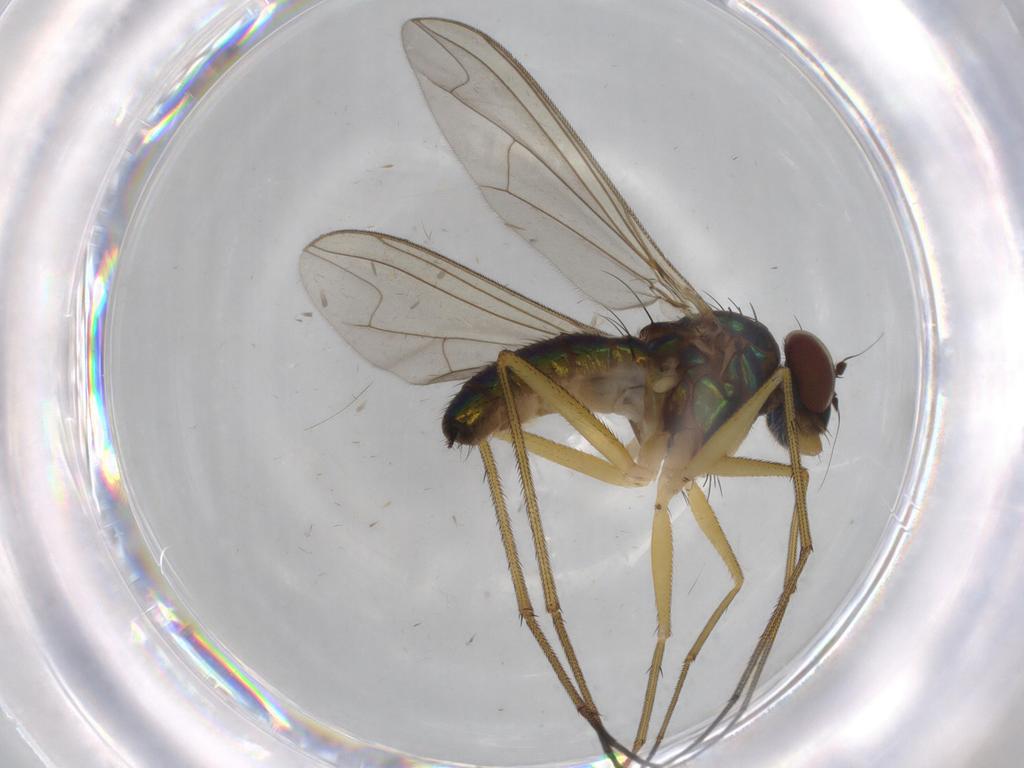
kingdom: Animalia
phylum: Arthropoda
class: Insecta
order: Diptera
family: Dolichopodidae
